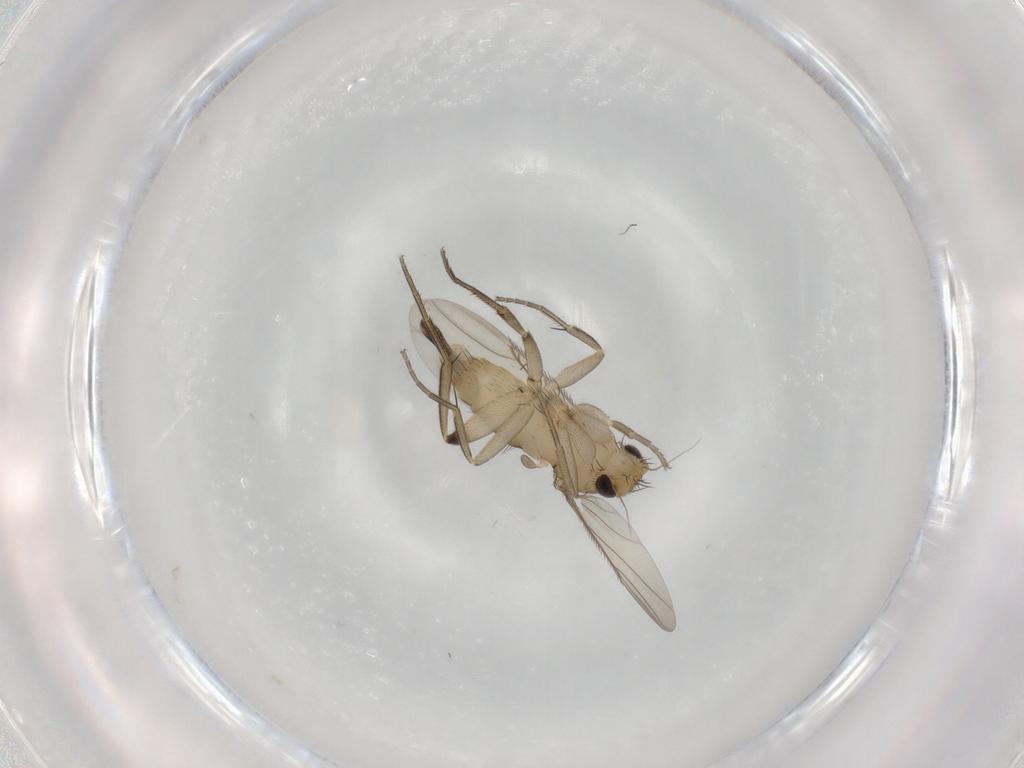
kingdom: Animalia
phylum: Arthropoda
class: Insecta
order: Diptera
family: Phoridae
